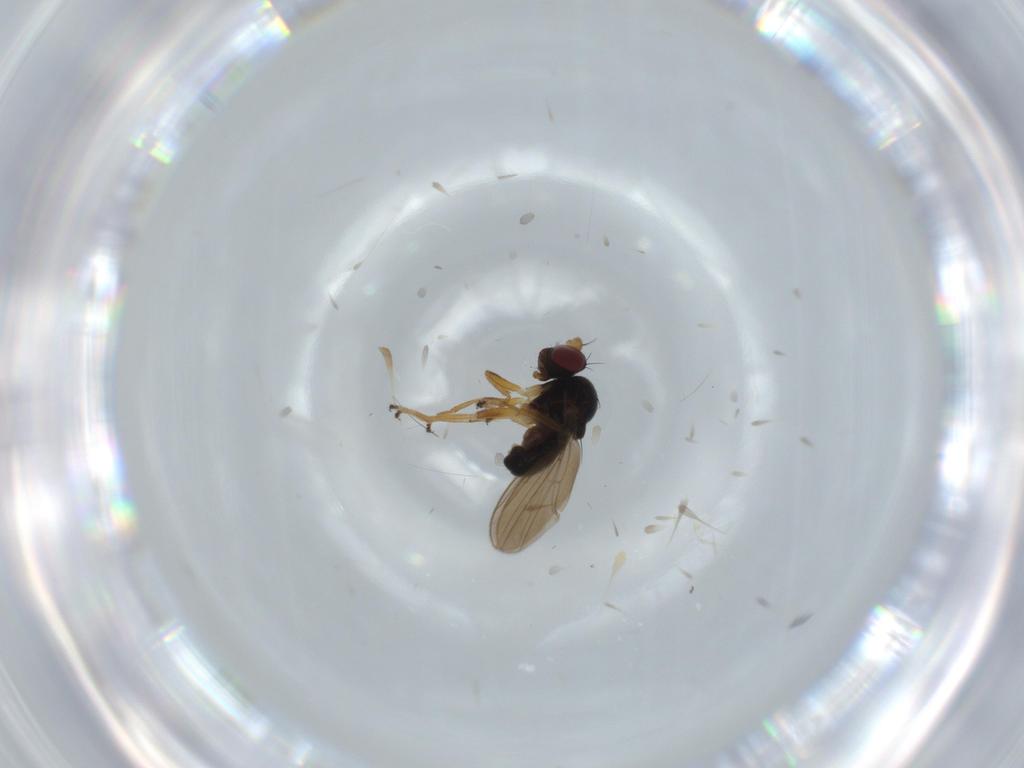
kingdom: Animalia
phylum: Arthropoda
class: Insecta
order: Diptera
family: Ephydridae
